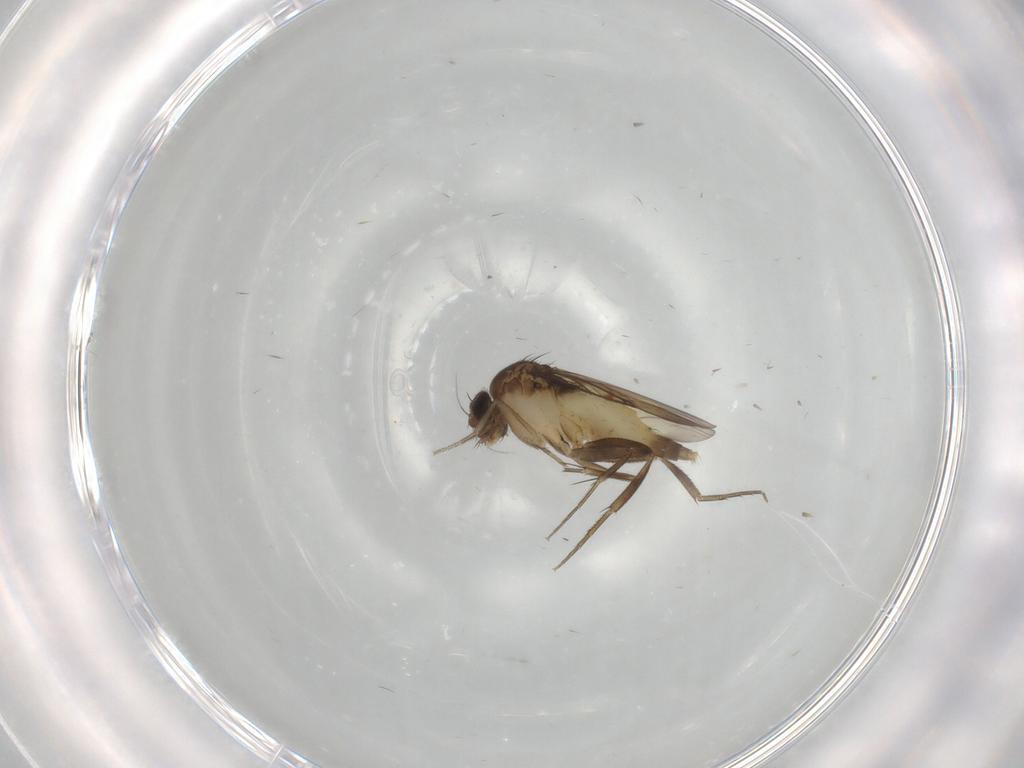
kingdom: Animalia
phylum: Arthropoda
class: Insecta
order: Diptera
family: Phoridae
